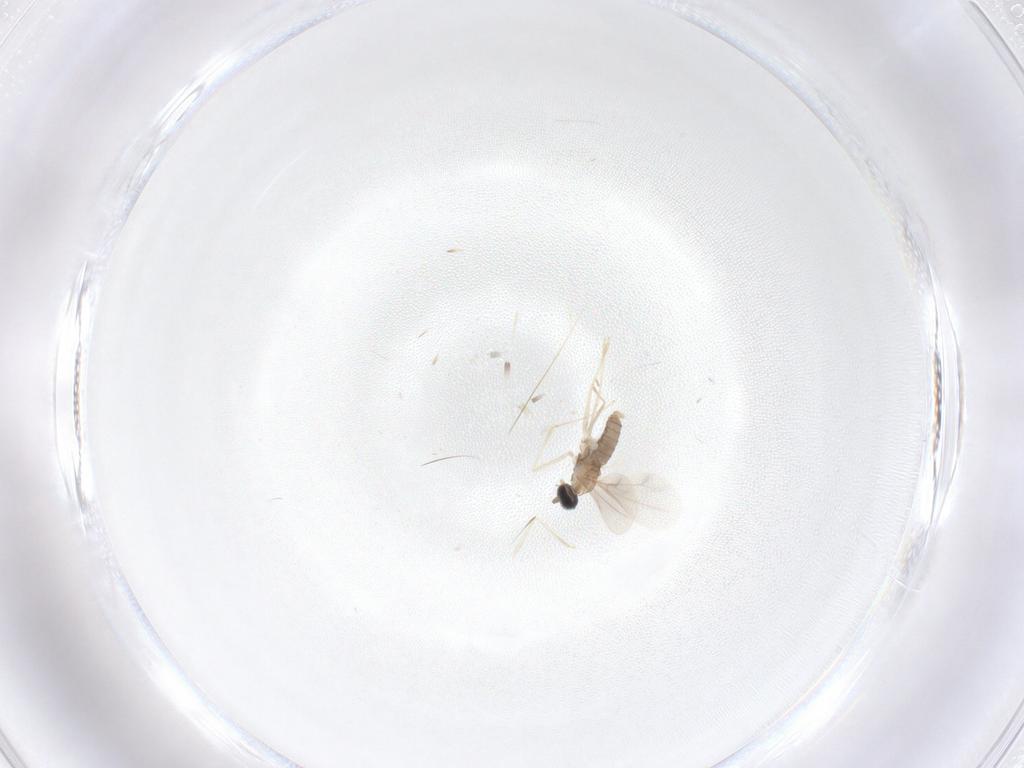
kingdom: Animalia
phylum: Arthropoda
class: Insecta
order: Diptera
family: Cecidomyiidae
